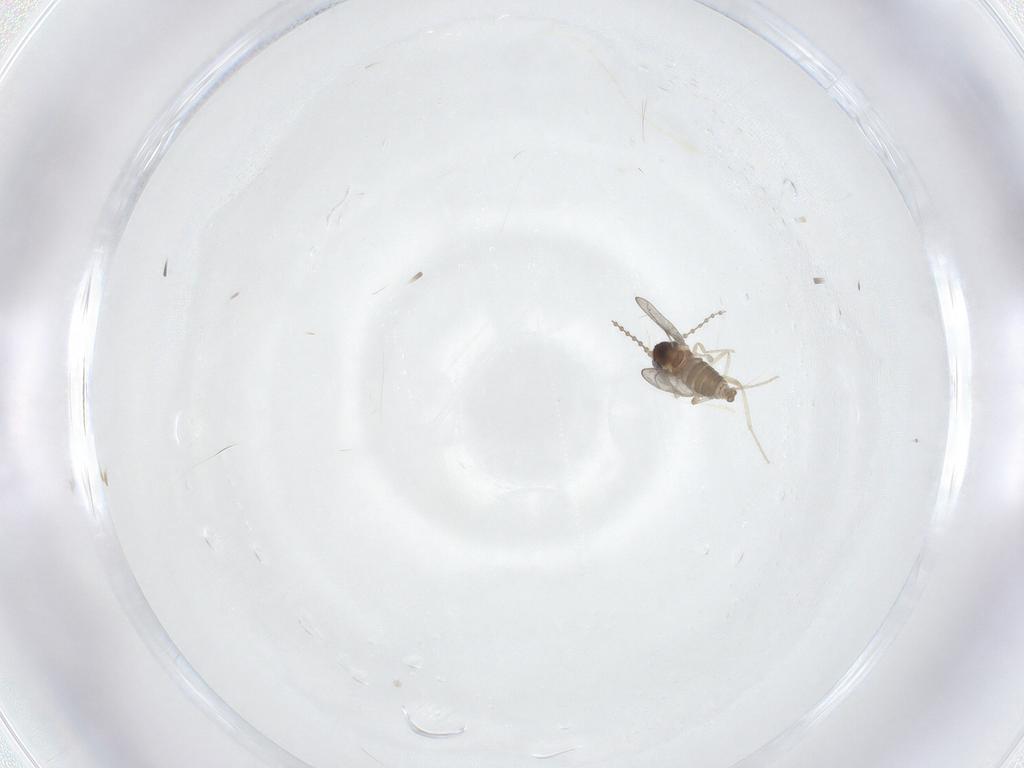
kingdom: Animalia
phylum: Arthropoda
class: Insecta
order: Diptera
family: Cecidomyiidae
